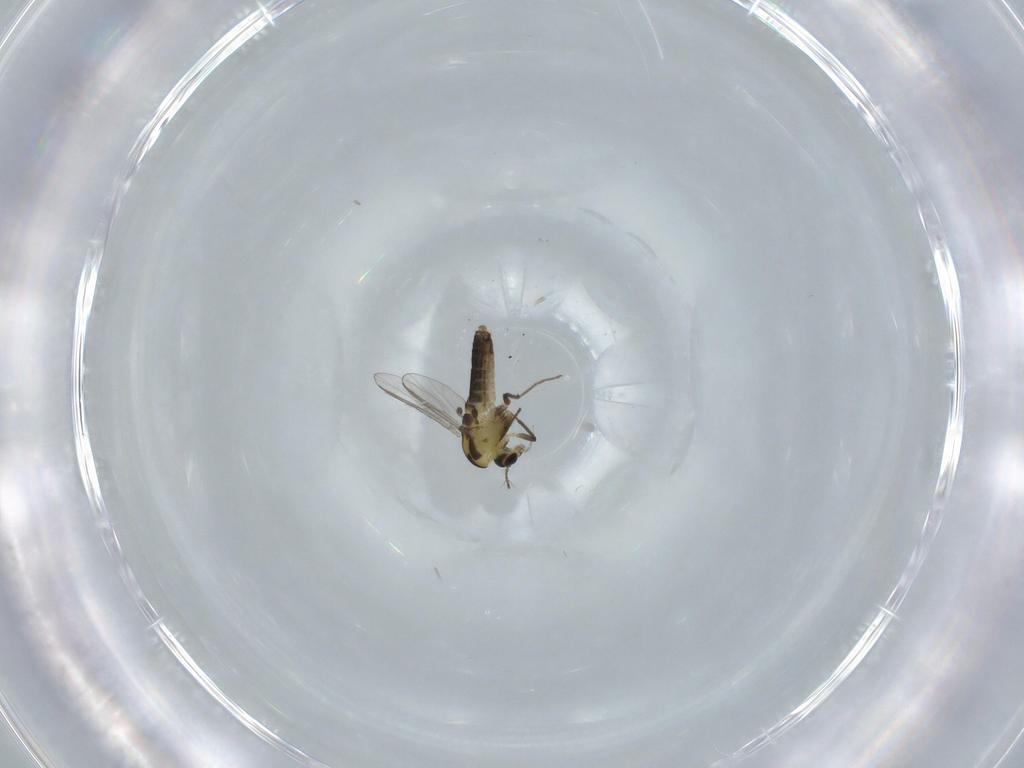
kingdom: Animalia
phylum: Arthropoda
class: Insecta
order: Diptera
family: Chironomidae
